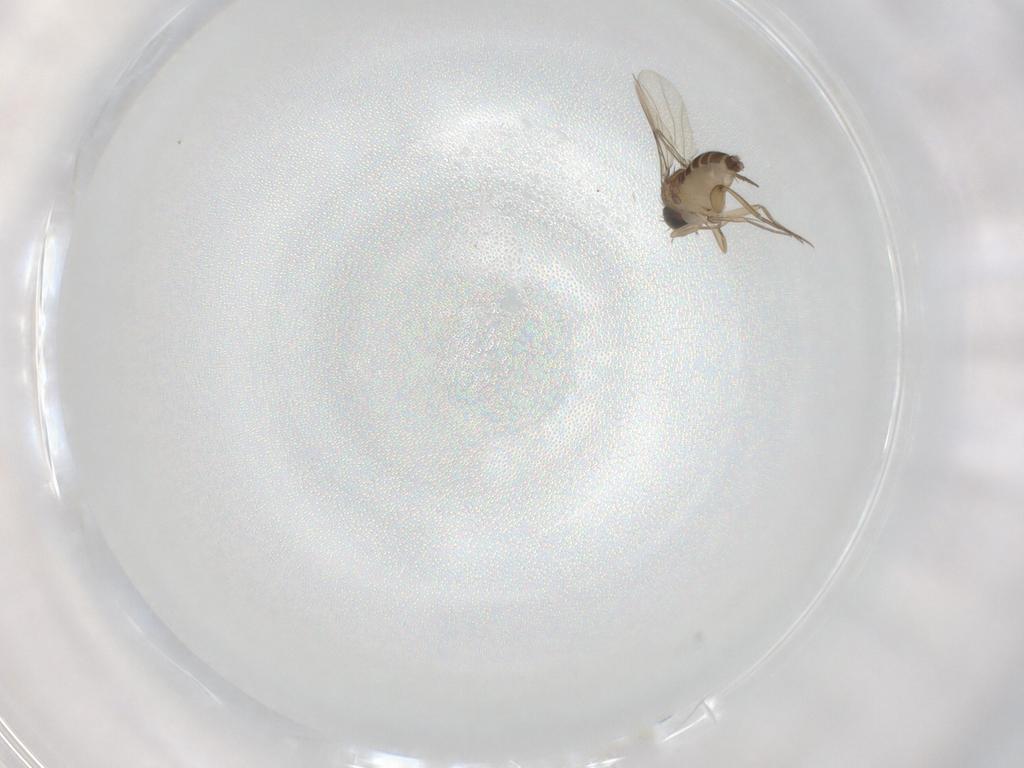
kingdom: Animalia
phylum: Arthropoda
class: Insecta
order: Diptera
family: Phoridae
